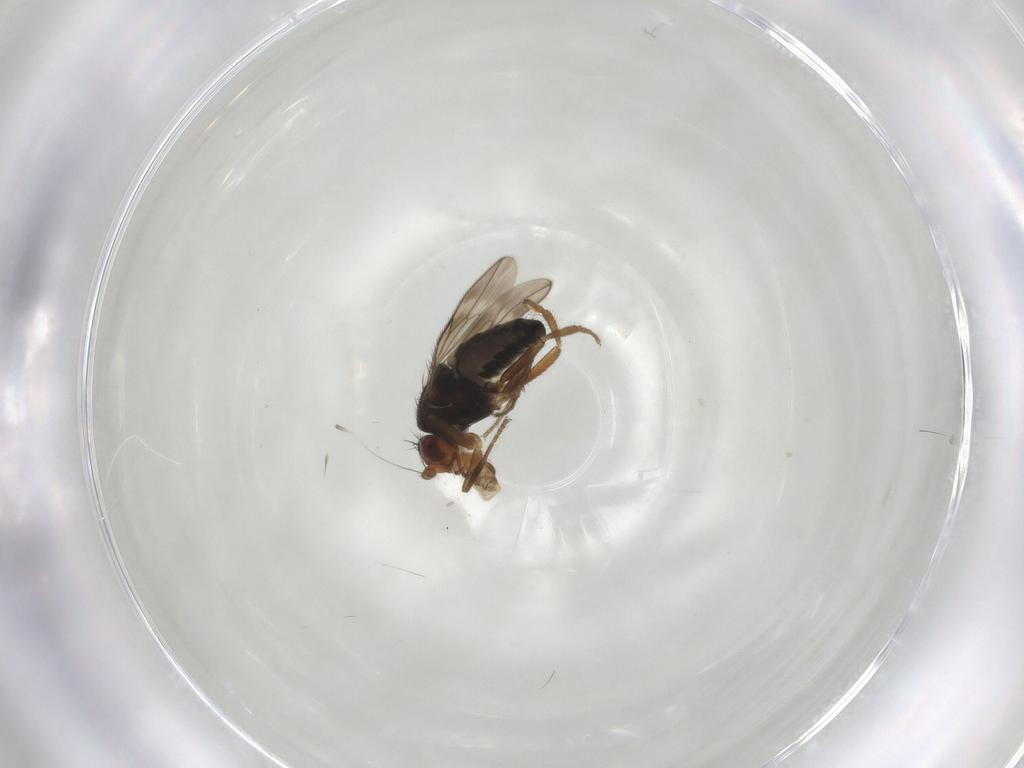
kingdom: Animalia
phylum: Arthropoda
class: Insecta
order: Diptera
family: Sphaeroceridae
